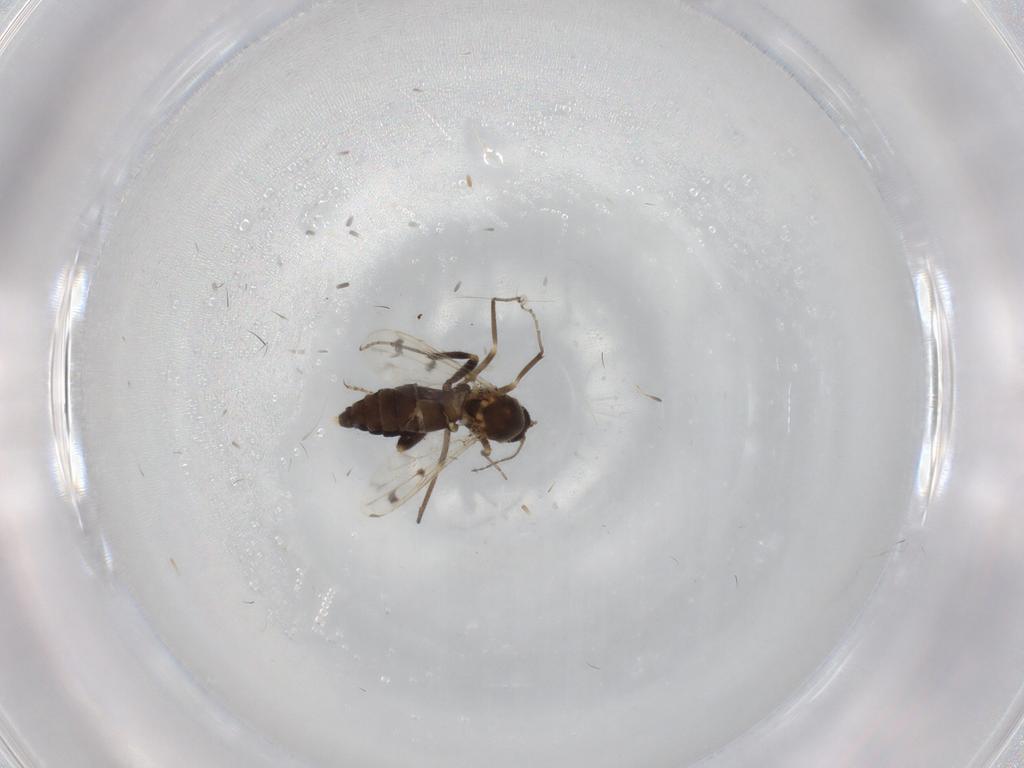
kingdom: Animalia
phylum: Arthropoda
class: Insecta
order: Diptera
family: Ceratopogonidae
